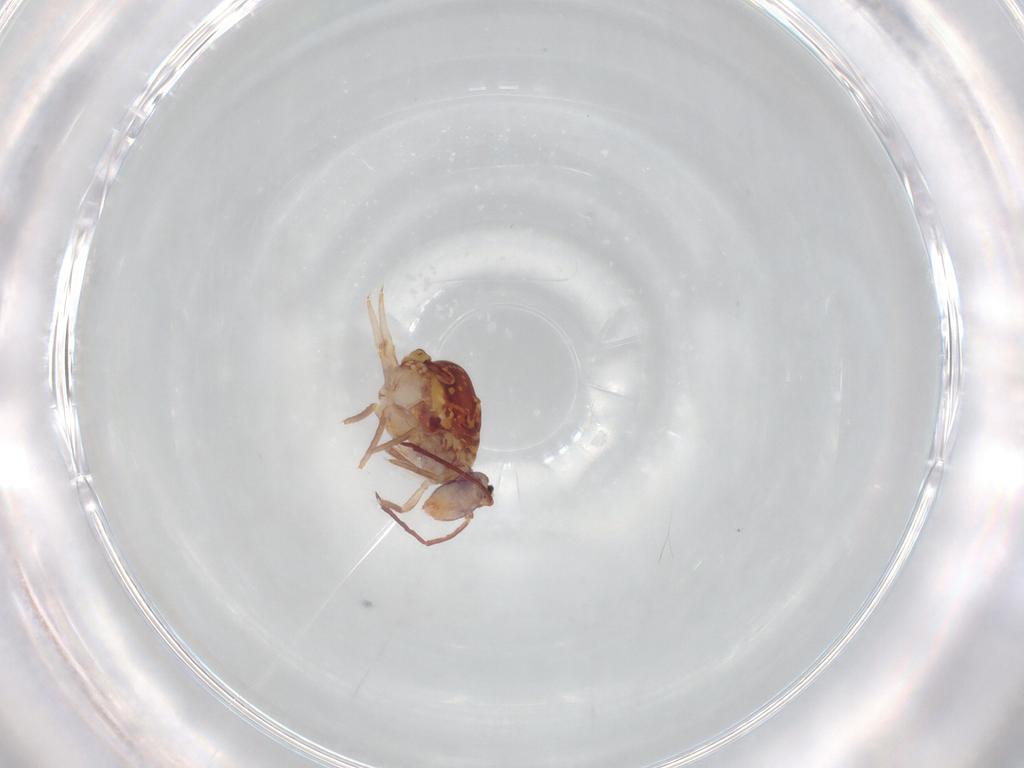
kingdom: Animalia
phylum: Arthropoda
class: Collembola
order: Symphypleona
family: Dicyrtomidae
